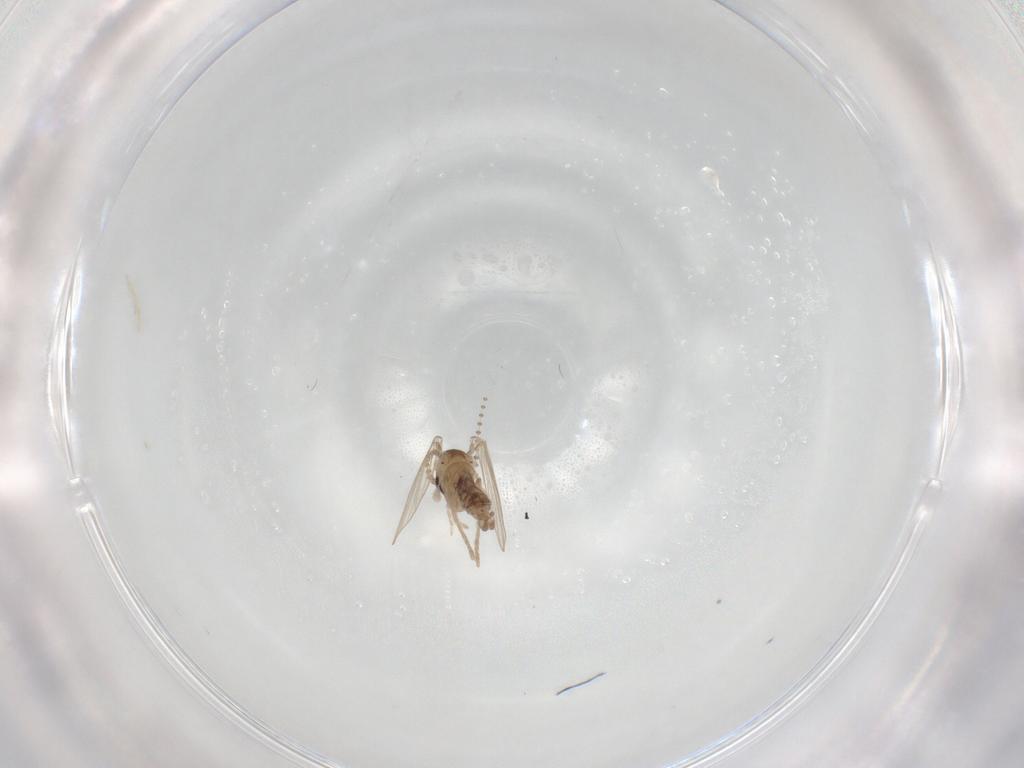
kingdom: Animalia
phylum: Arthropoda
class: Insecta
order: Diptera
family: Psychodidae
